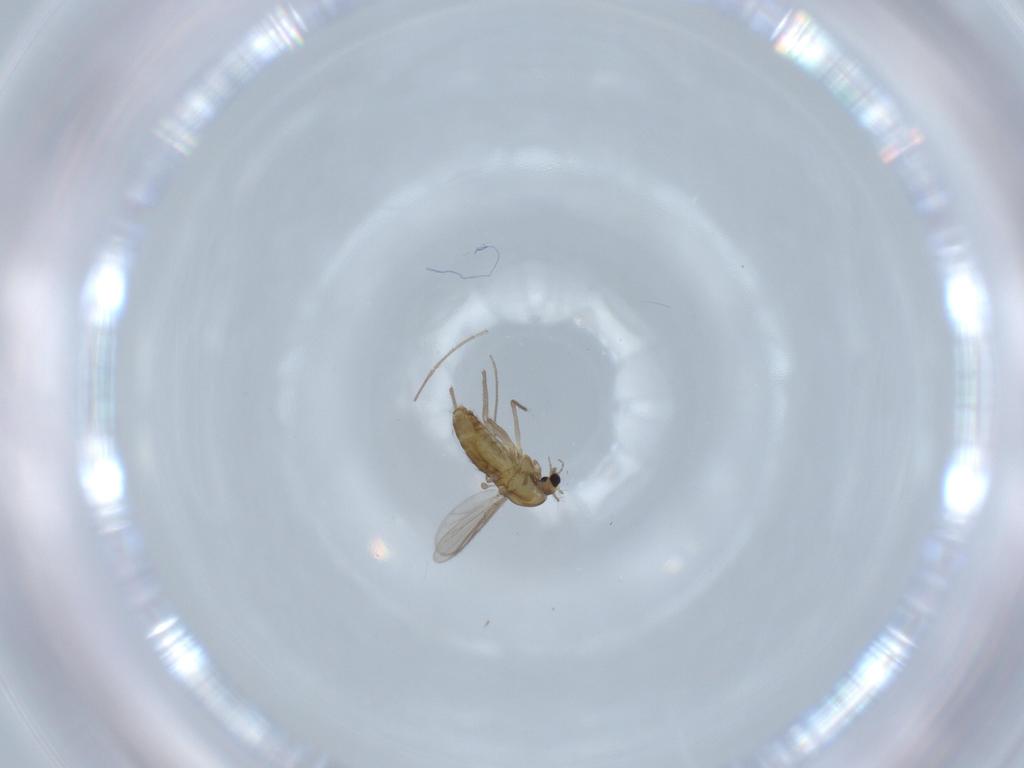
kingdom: Animalia
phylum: Arthropoda
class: Insecta
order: Diptera
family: Chironomidae
